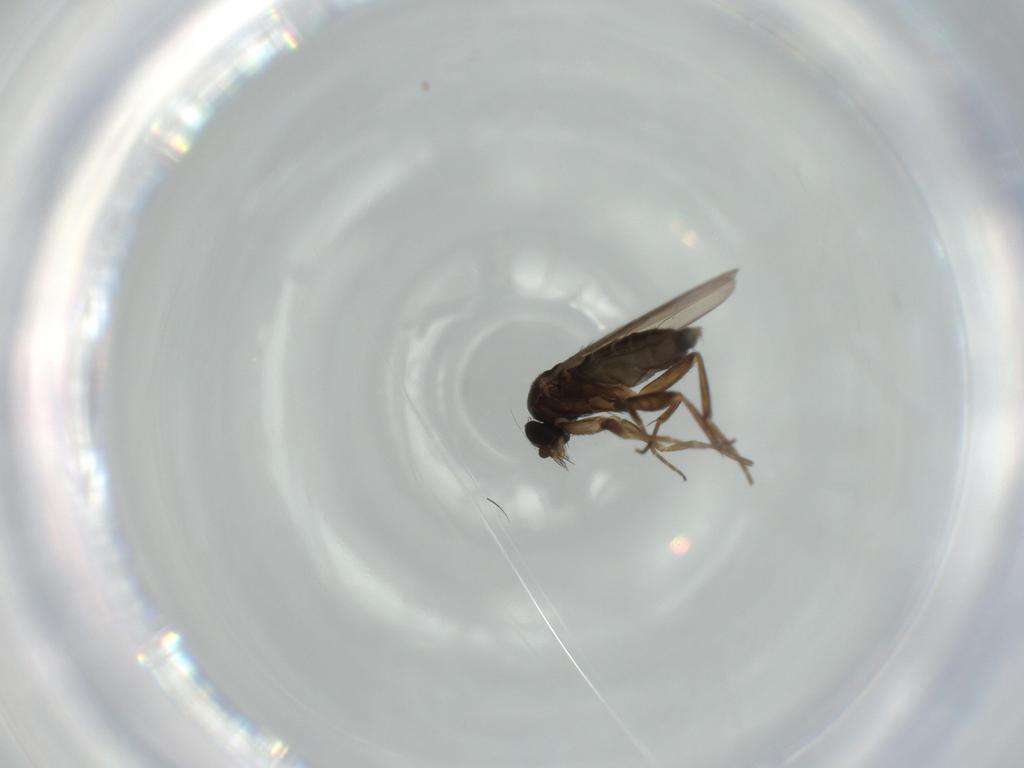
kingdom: Animalia
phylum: Arthropoda
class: Insecta
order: Diptera
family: Phoridae
